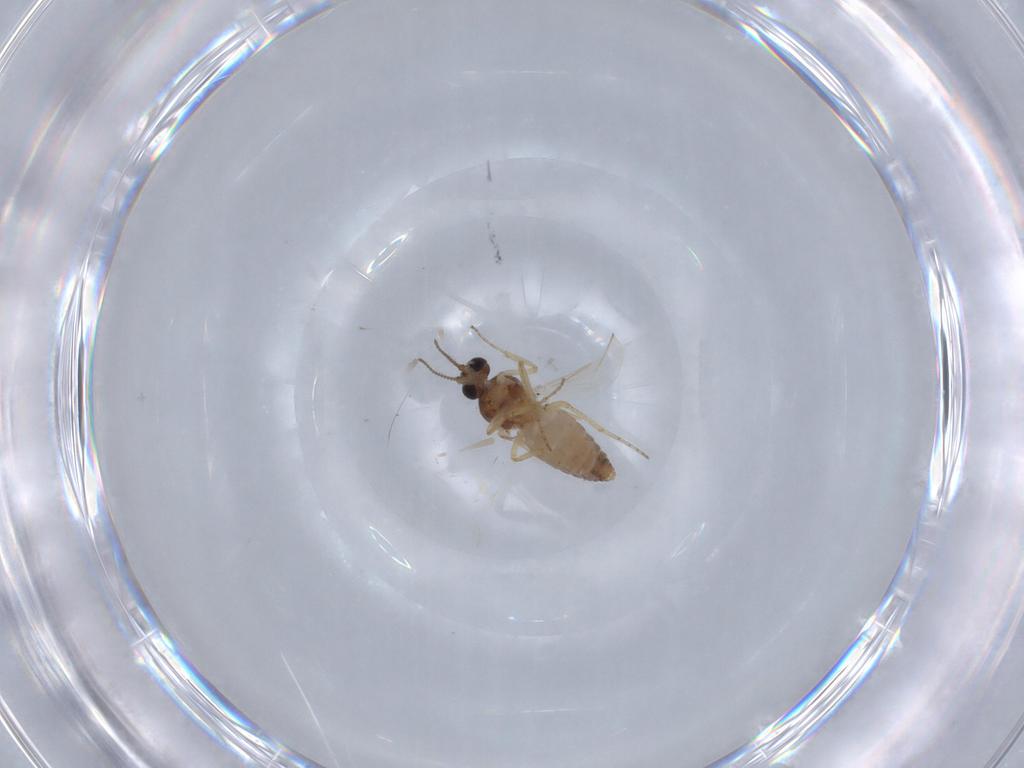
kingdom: Animalia
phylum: Arthropoda
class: Insecta
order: Diptera
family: Ceratopogonidae
